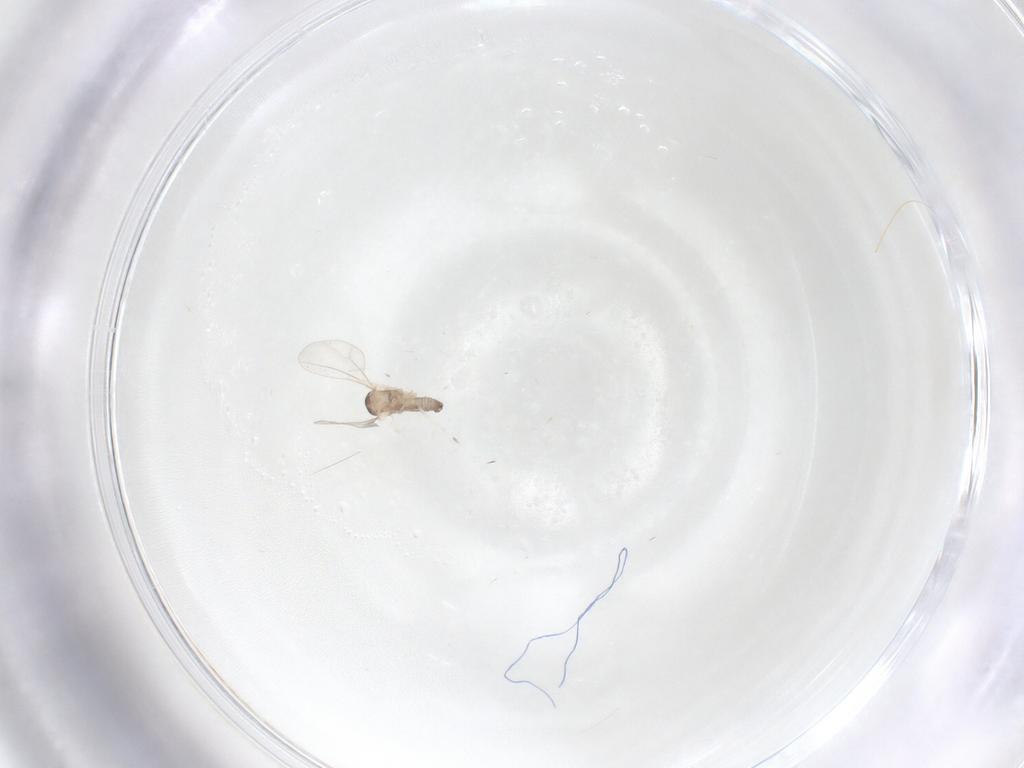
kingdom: Animalia
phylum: Arthropoda
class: Insecta
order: Diptera
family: Cecidomyiidae
